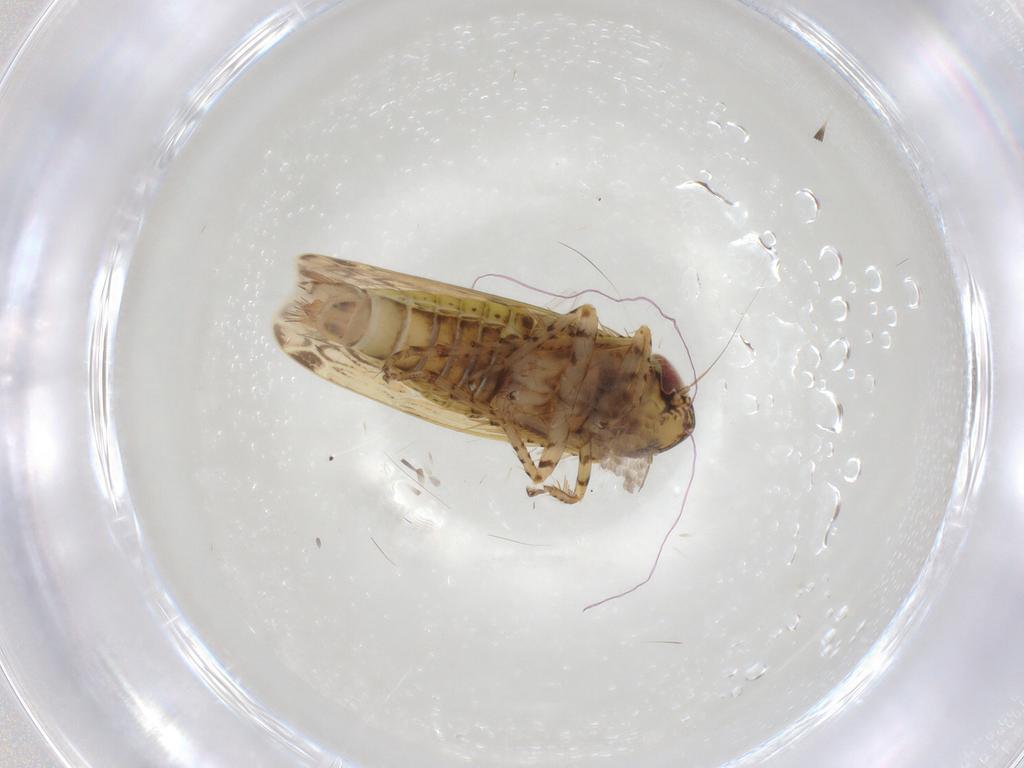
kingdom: Animalia
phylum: Arthropoda
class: Insecta
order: Hemiptera
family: Cicadellidae
